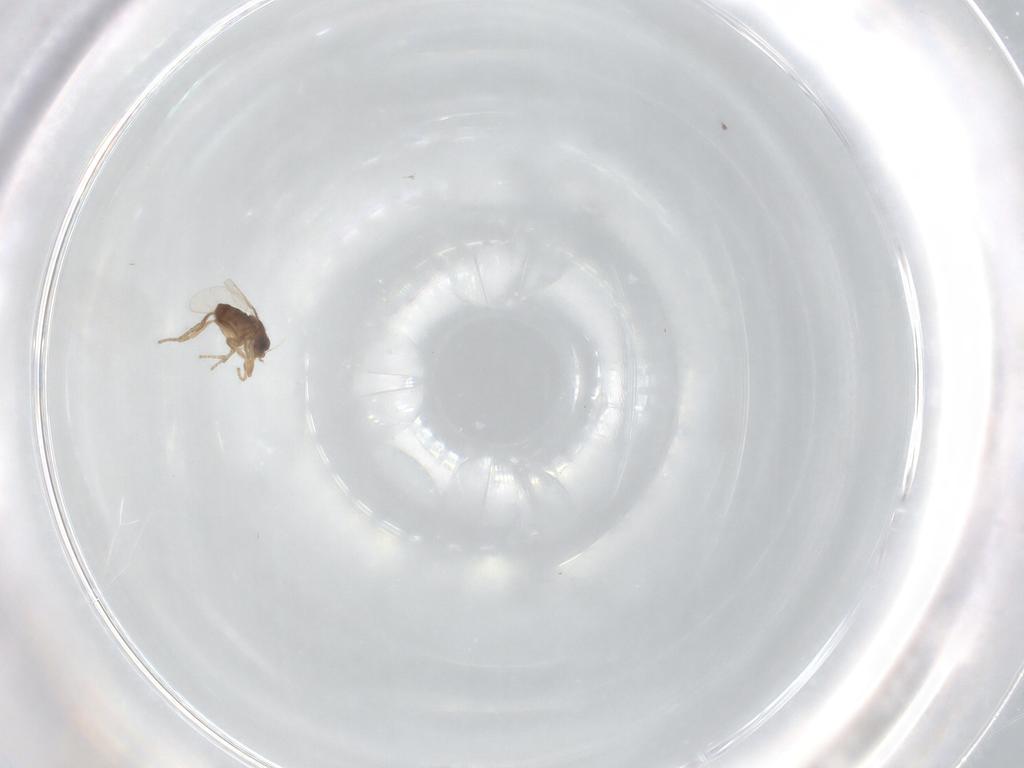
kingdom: Animalia
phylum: Arthropoda
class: Insecta
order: Diptera
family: Phoridae
